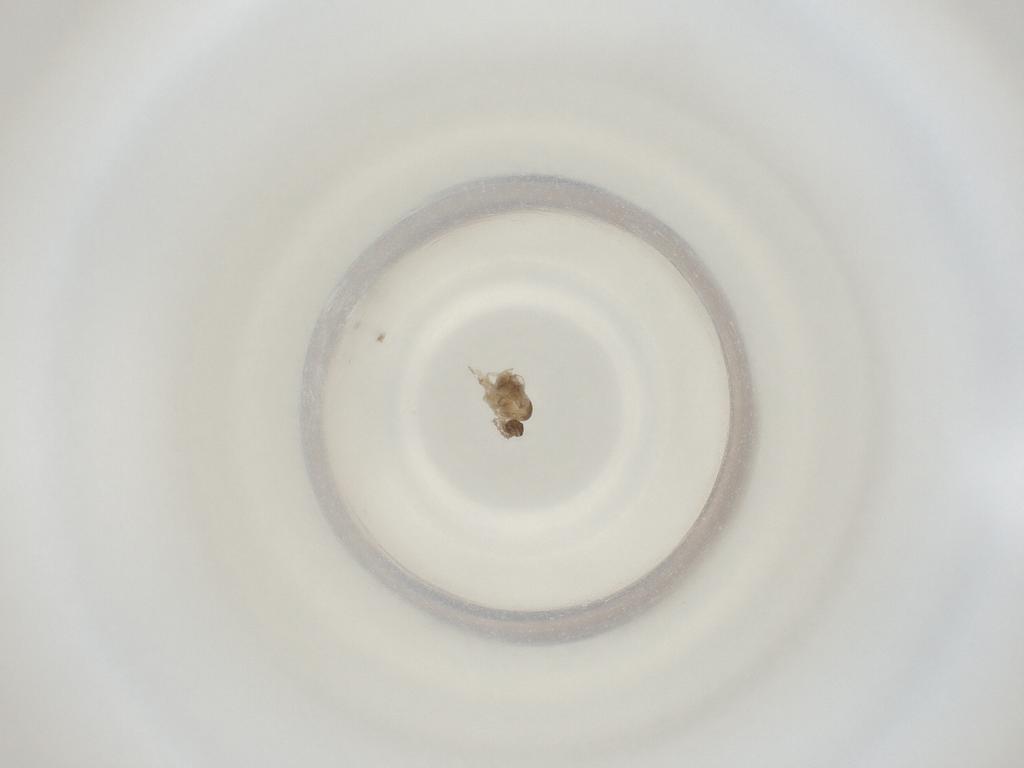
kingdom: Animalia
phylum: Arthropoda
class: Insecta
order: Diptera
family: Cecidomyiidae
